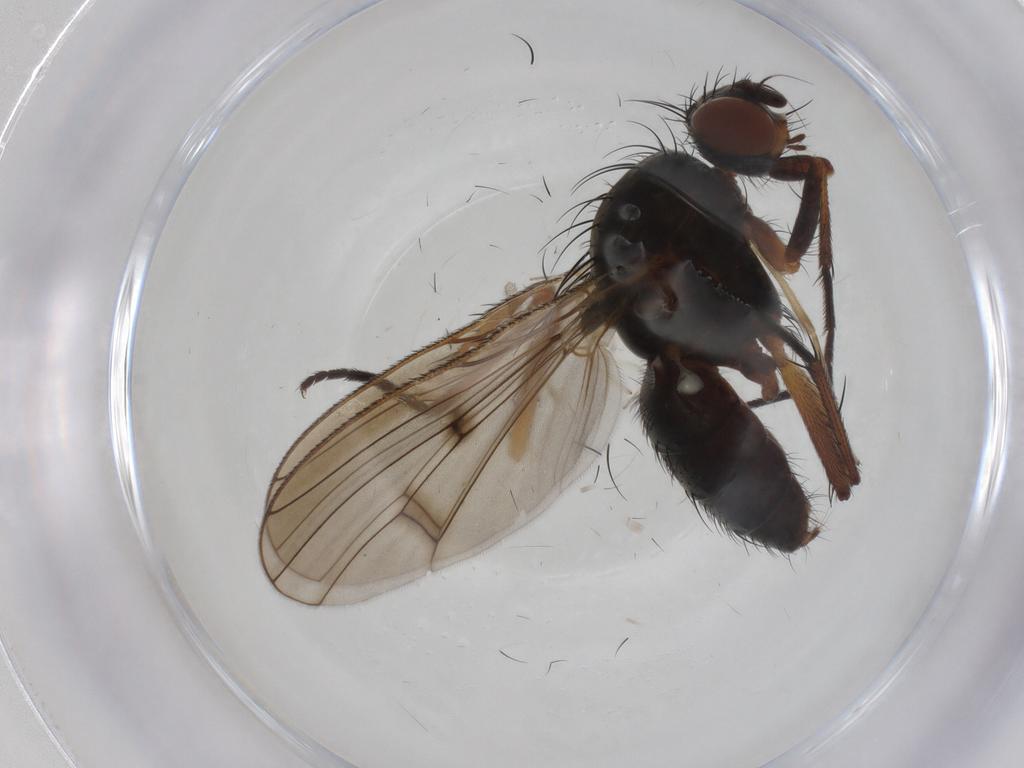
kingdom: Animalia
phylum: Arthropoda
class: Insecta
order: Diptera
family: Anthomyiidae
